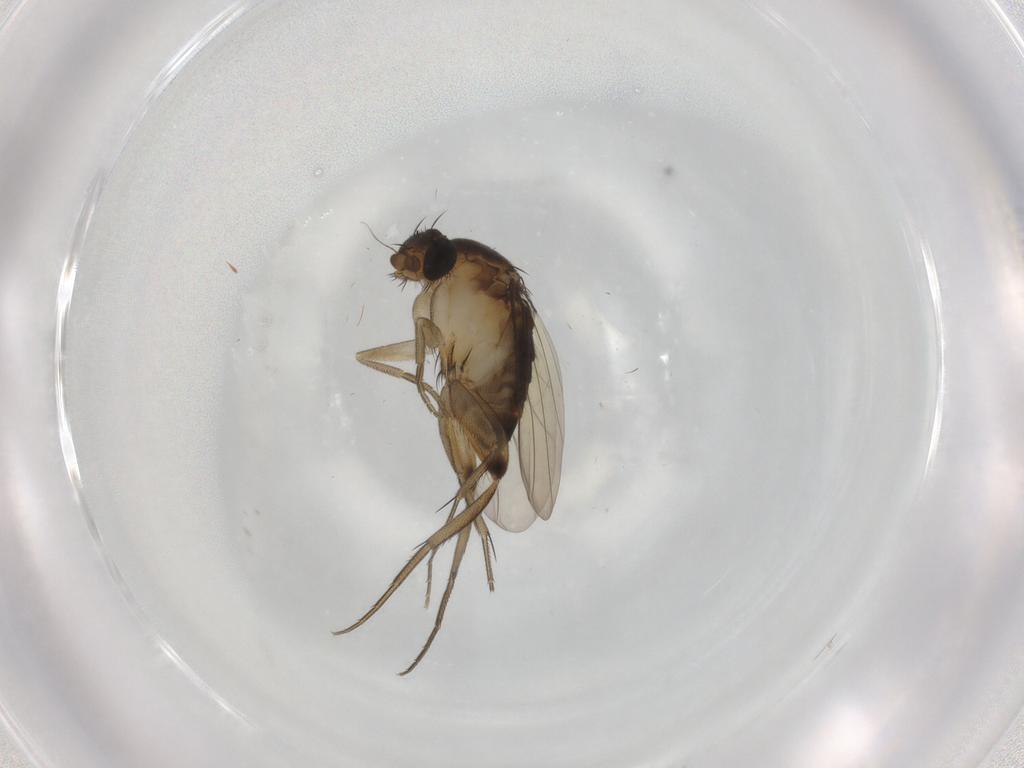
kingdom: Animalia
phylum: Arthropoda
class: Insecta
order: Diptera
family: Phoridae
